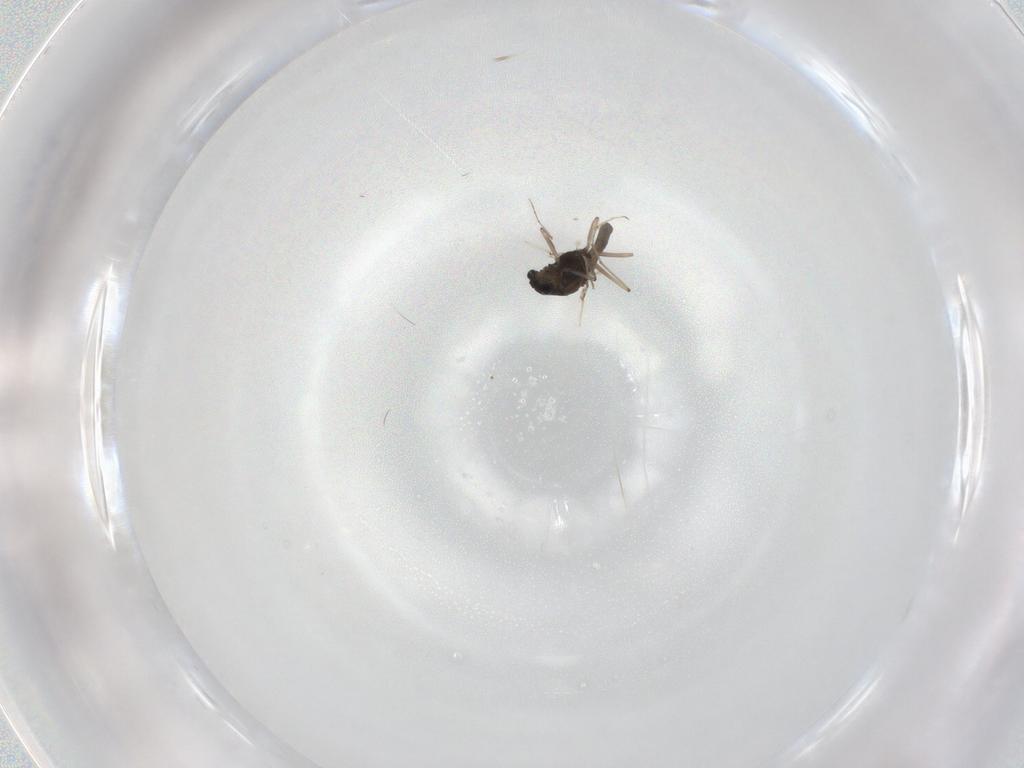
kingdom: Animalia
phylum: Arthropoda
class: Insecta
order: Diptera
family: Chironomidae
